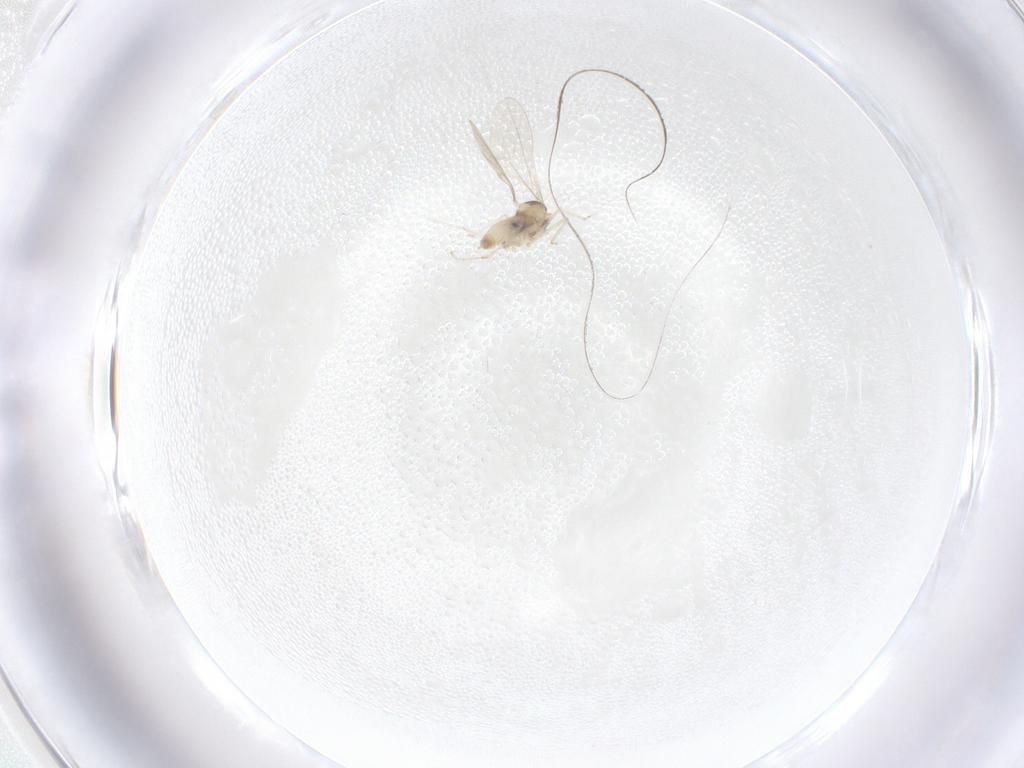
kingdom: Animalia
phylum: Arthropoda
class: Insecta
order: Diptera
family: Cecidomyiidae
